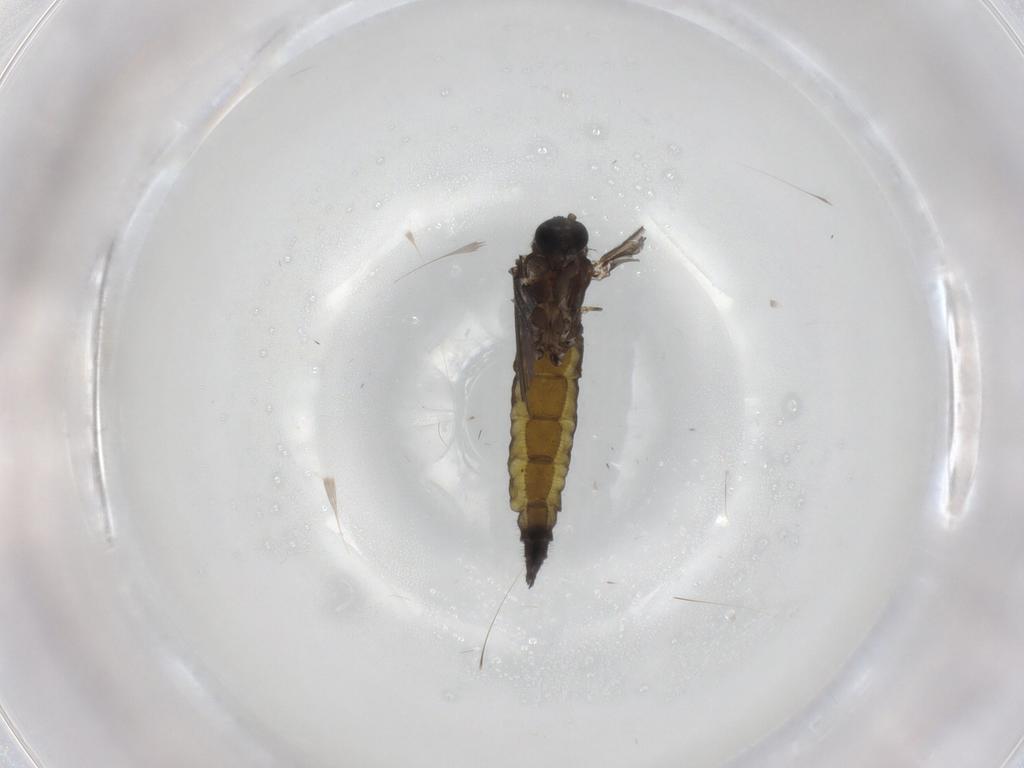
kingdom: Animalia
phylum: Arthropoda
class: Insecta
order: Diptera
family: Sciaridae
